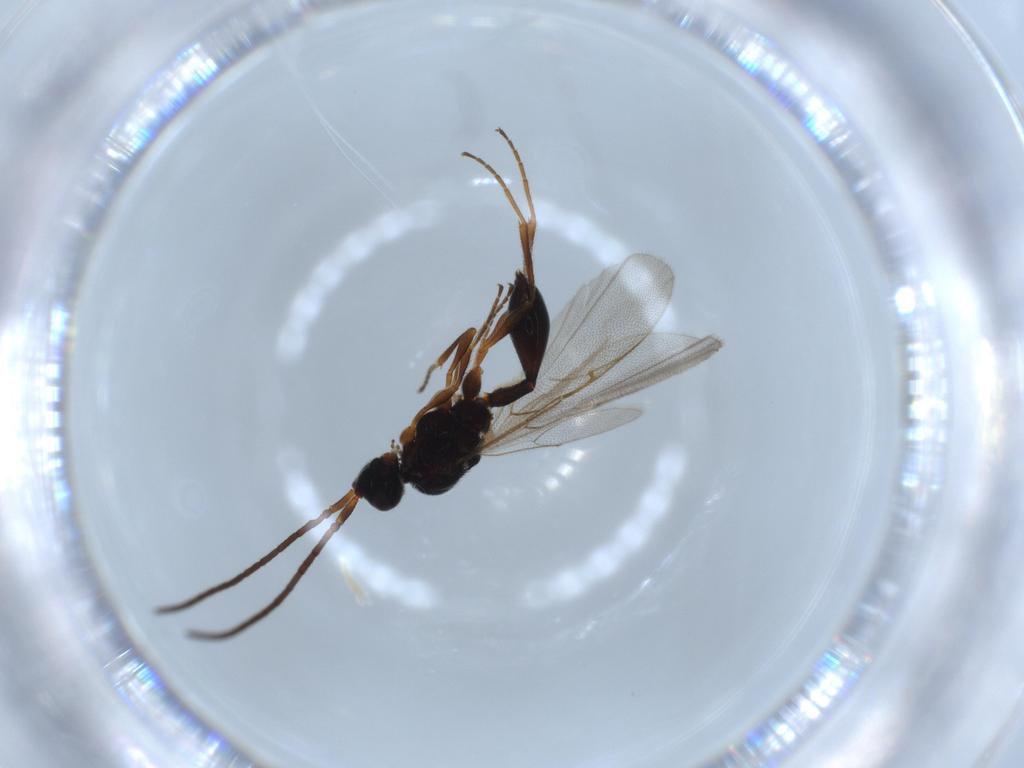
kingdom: Animalia
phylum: Arthropoda
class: Insecta
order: Hymenoptera
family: Diapriidae
